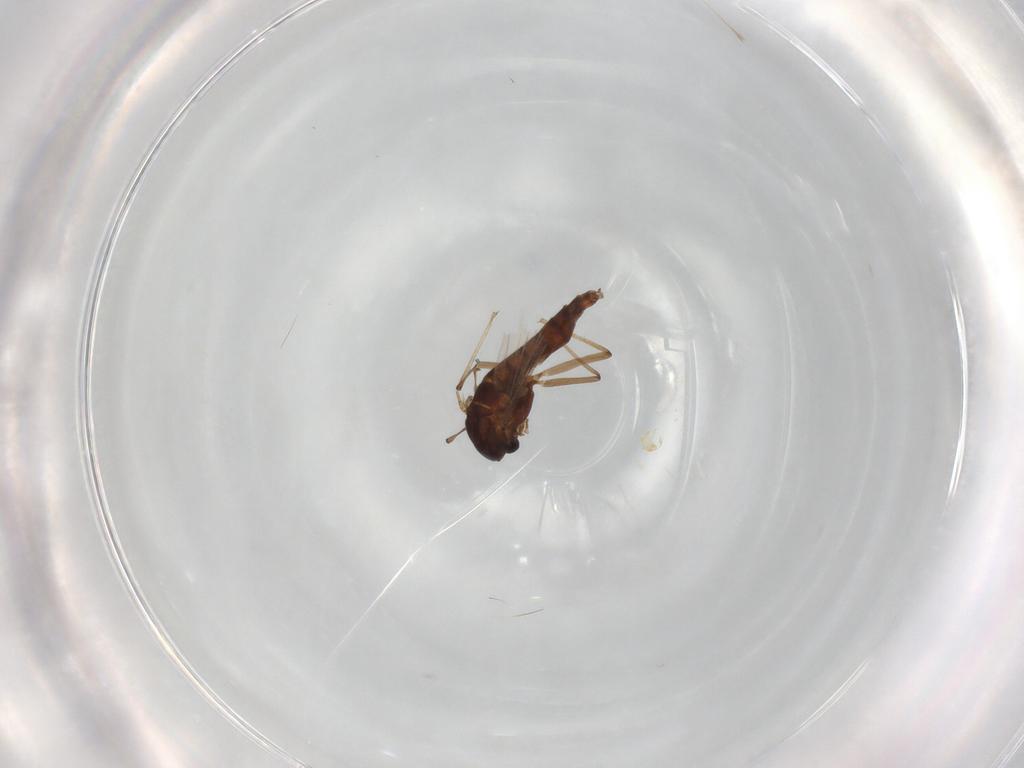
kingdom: Animalia
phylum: Arthropoda
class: Insecta
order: Diptera
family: Chironomidae
